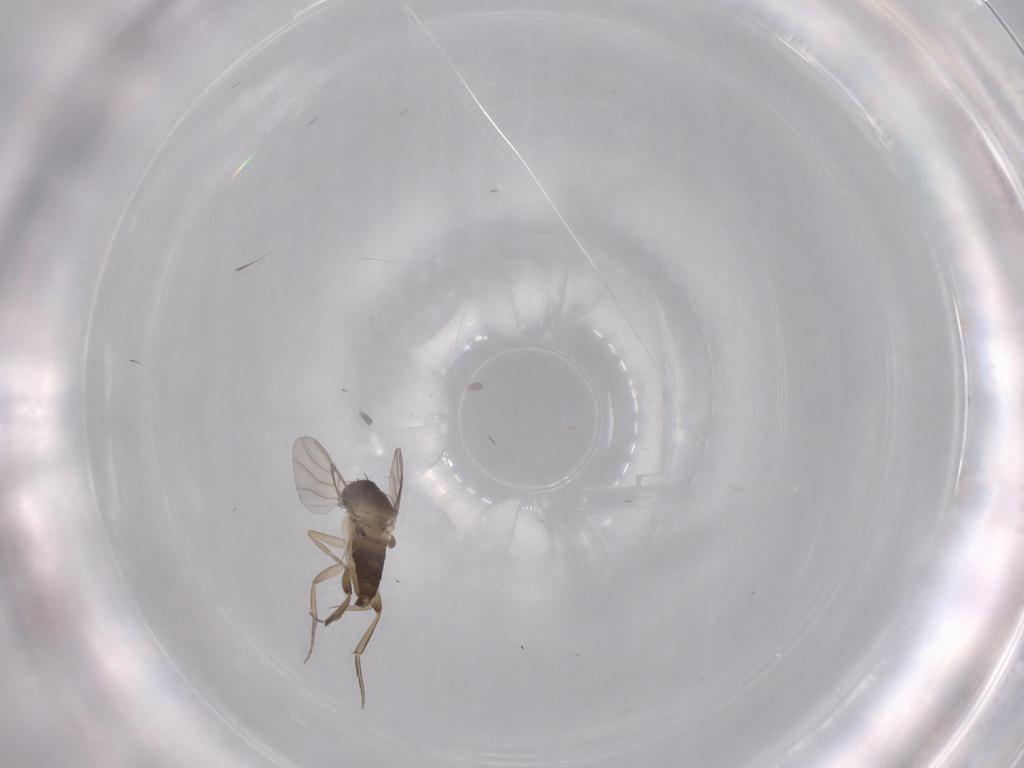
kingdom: Animalia
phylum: Arthropoda
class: Insecta
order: Diptera
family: Phoridae
